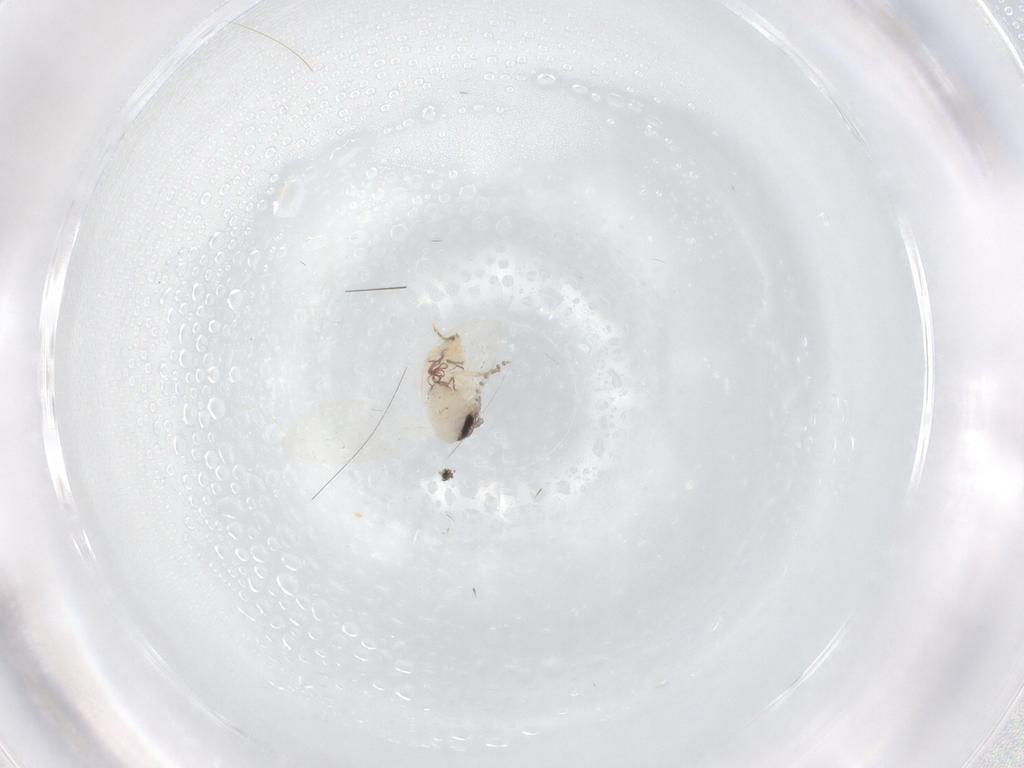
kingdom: Animalia
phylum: Arthropoda
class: Insecta
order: Diptera
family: Psychodidae
